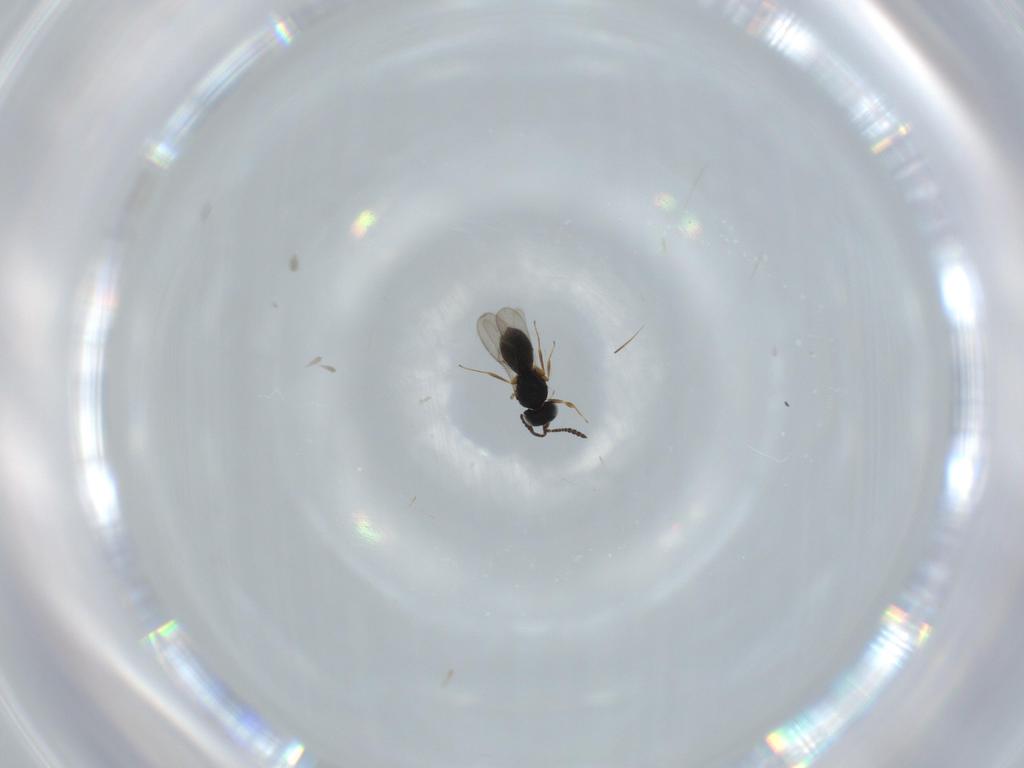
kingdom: Animalia
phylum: Arthropoda
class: Insecta
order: Hymenoptera
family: Scelionidae
